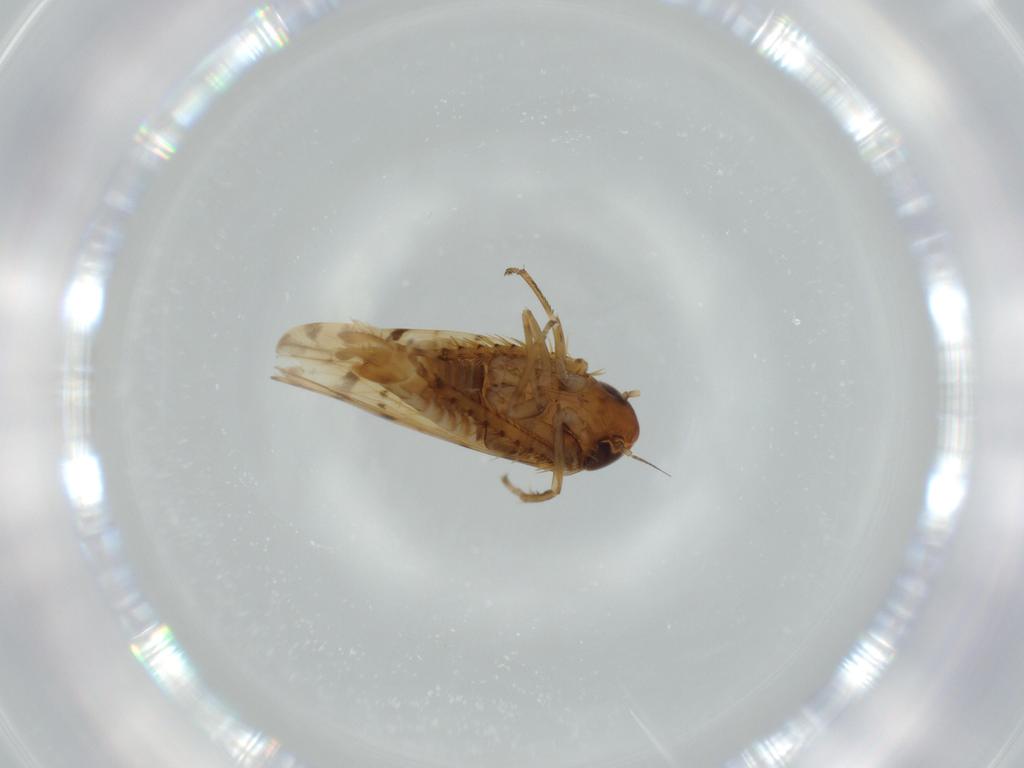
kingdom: Animalia
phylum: Arthropoda
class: Insecta
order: Hemiptera
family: Cicadellidae
